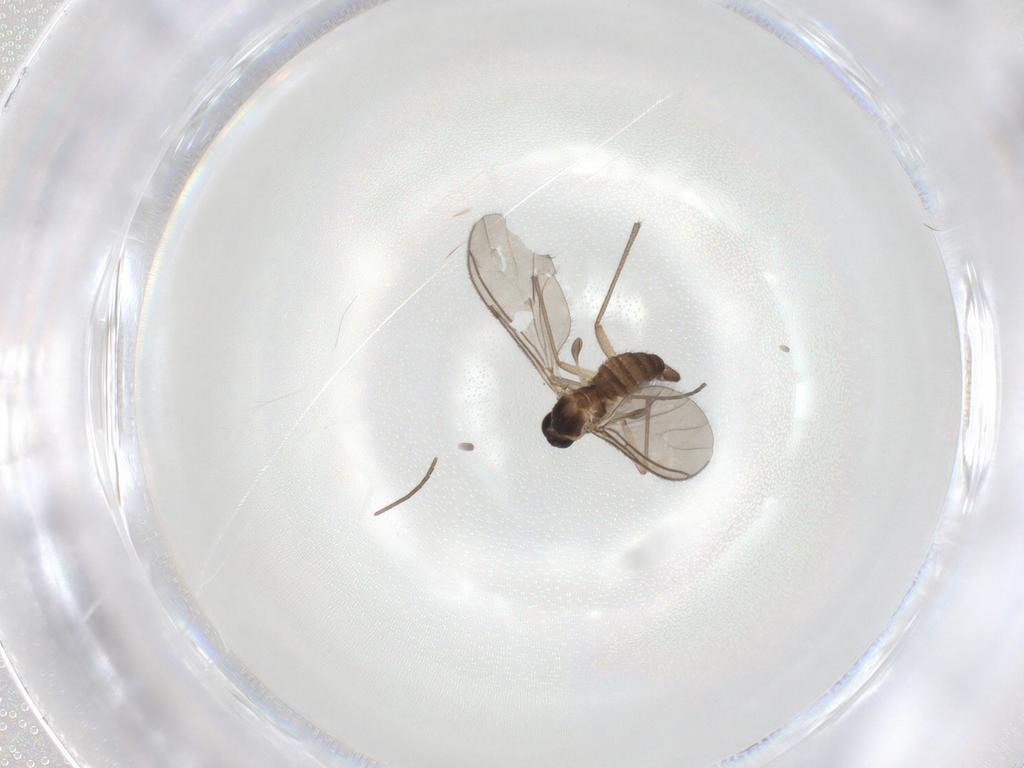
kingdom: Animalia
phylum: Arthropoda
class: Insecta
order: Diptera
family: Sciaridae
